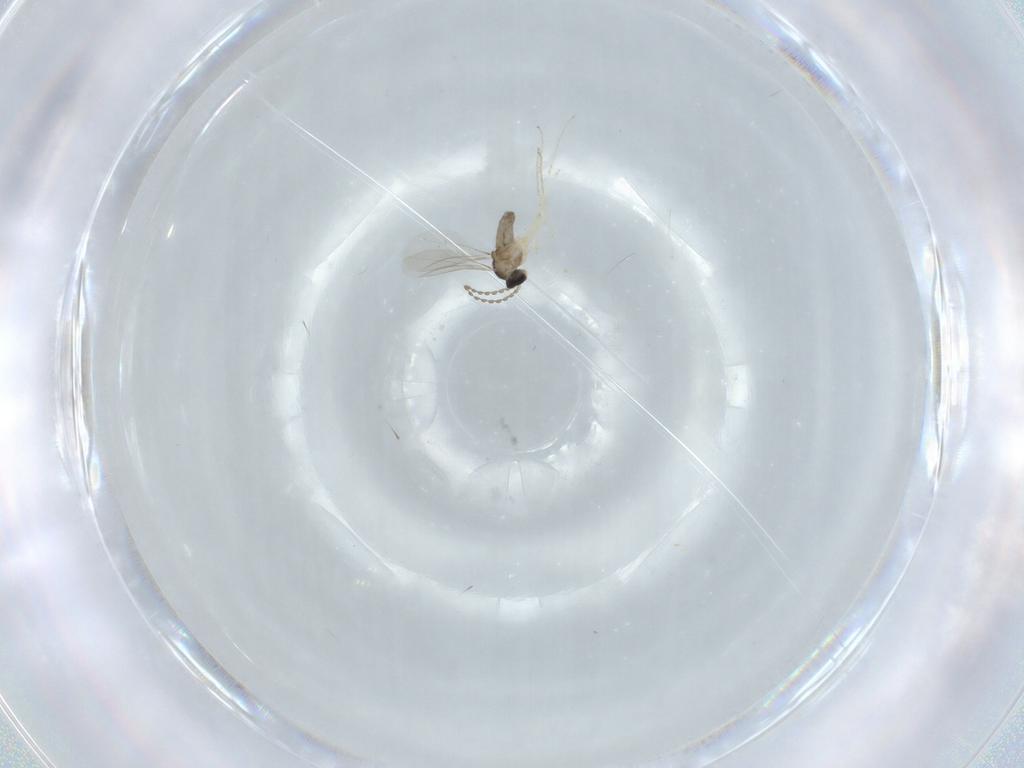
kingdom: Animalia
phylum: Arthropoda
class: Insecta
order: Diptera
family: Cecidomyiidae
